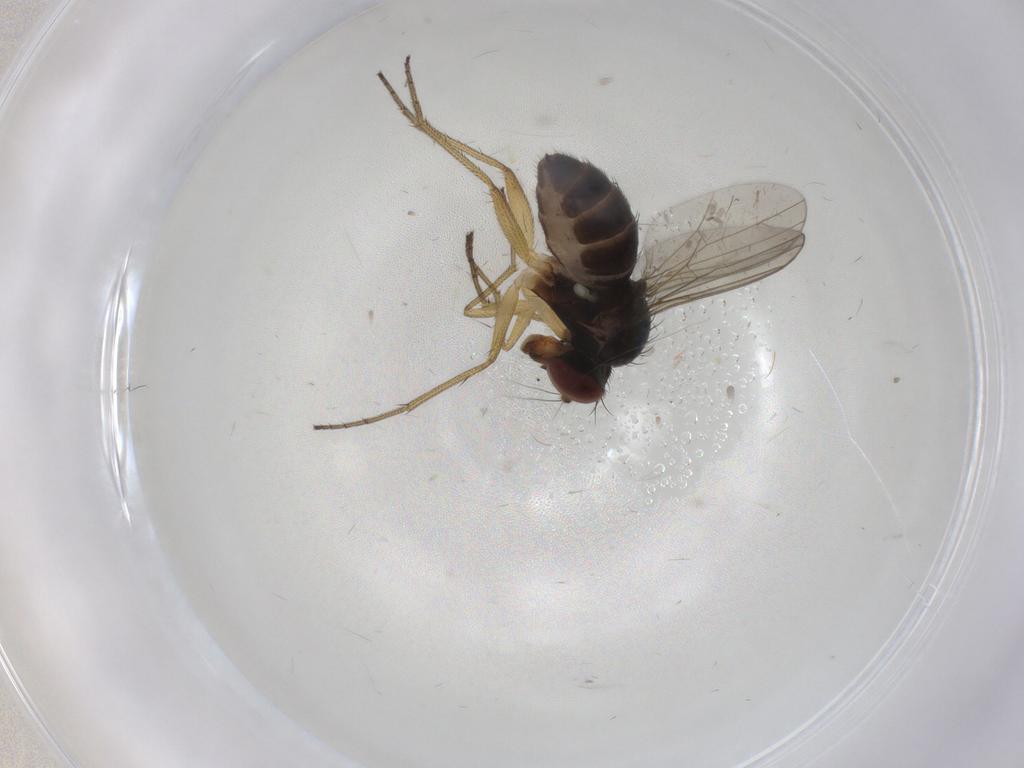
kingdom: Animalia
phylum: Arthropoda
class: Insecta
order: Diptera
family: Dolichopodidae
